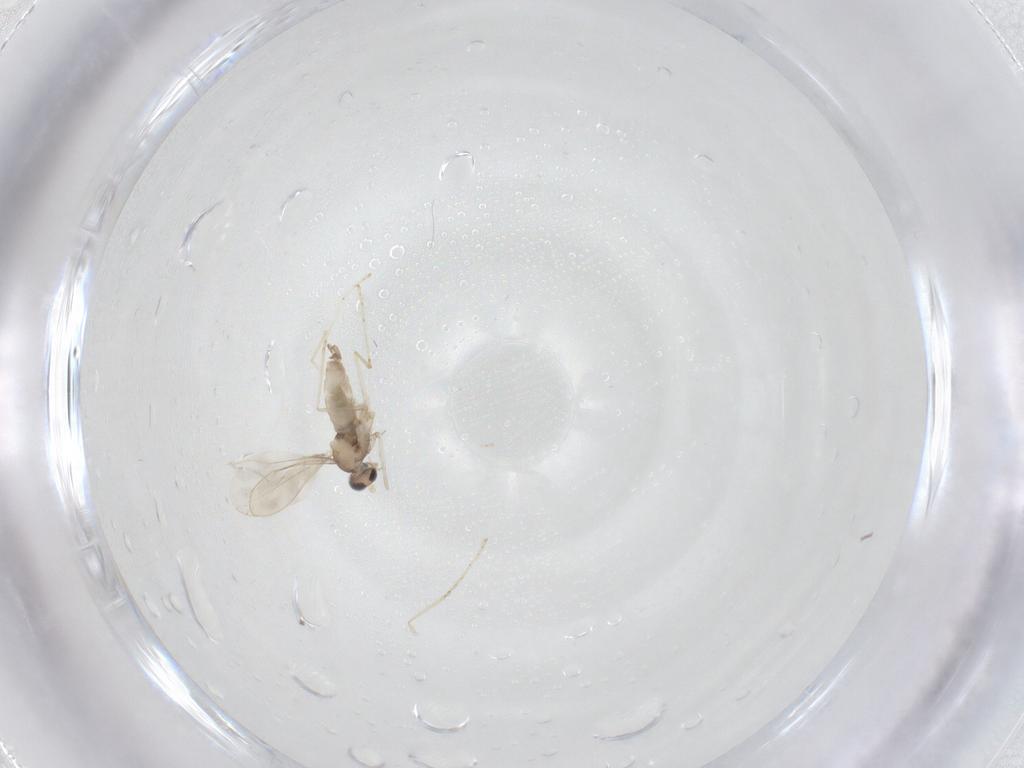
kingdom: Animalia
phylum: Arthropoda
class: Insecta
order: Diptera
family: Cecidomyiidae
